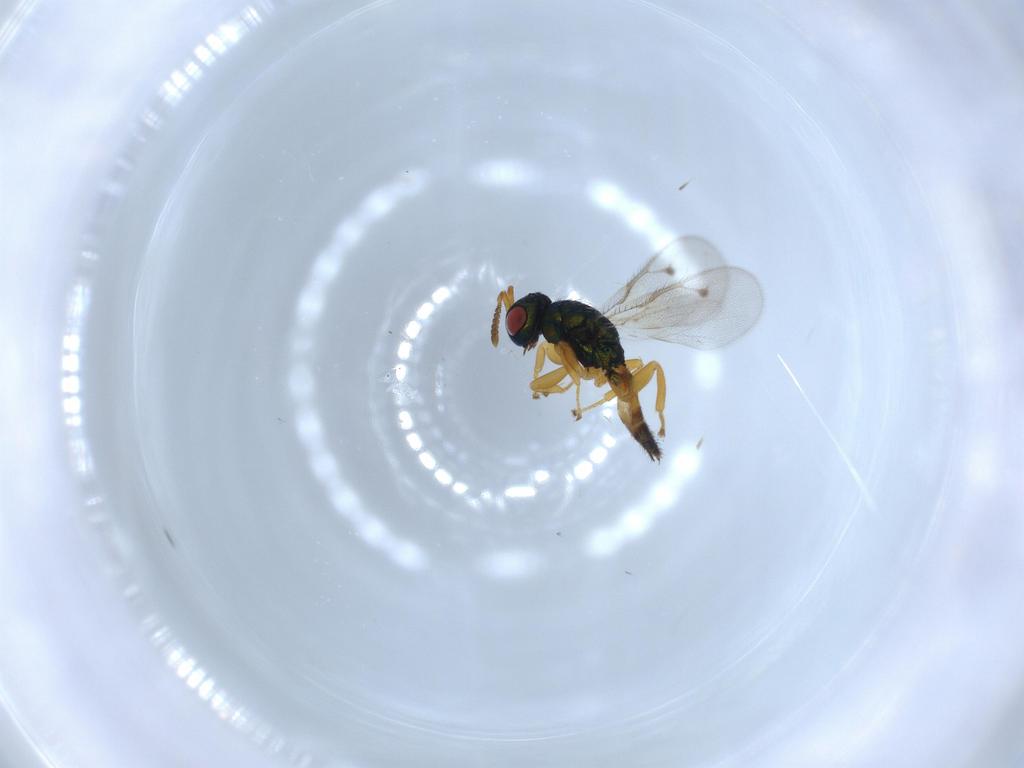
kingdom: Animalia
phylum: Arthropoda
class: Insecta
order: Hymenoptera
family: Pteromalidae
